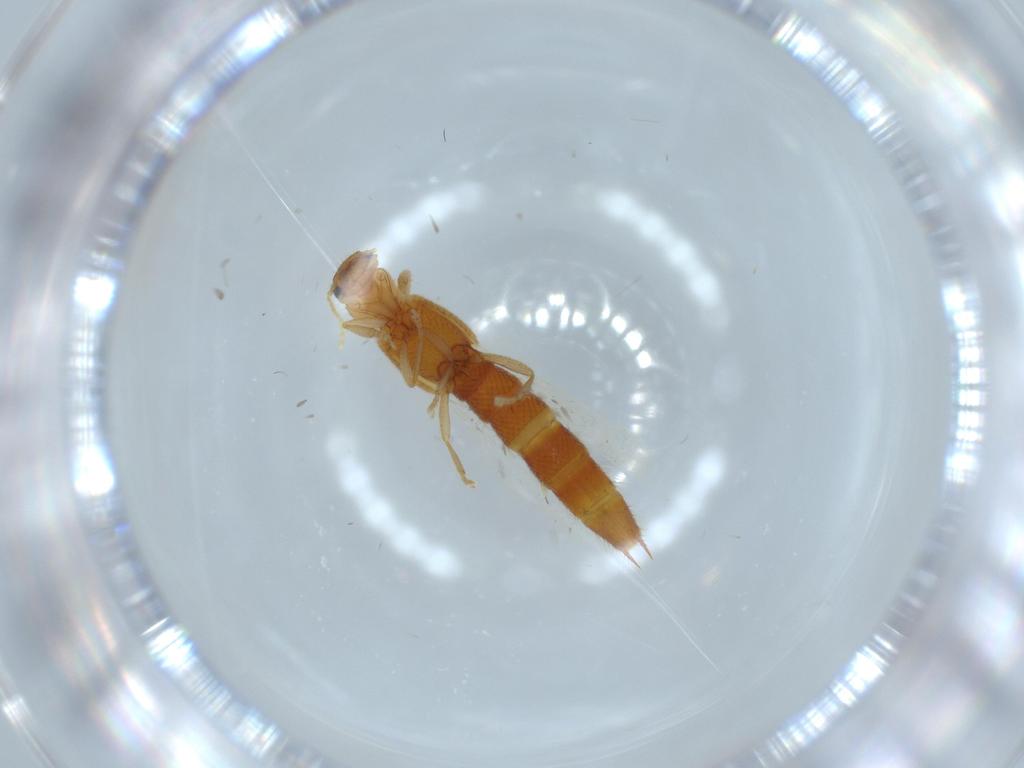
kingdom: Animalia
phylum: Arthropoda
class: Insecta
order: Coleoptera
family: Staphylinidae
